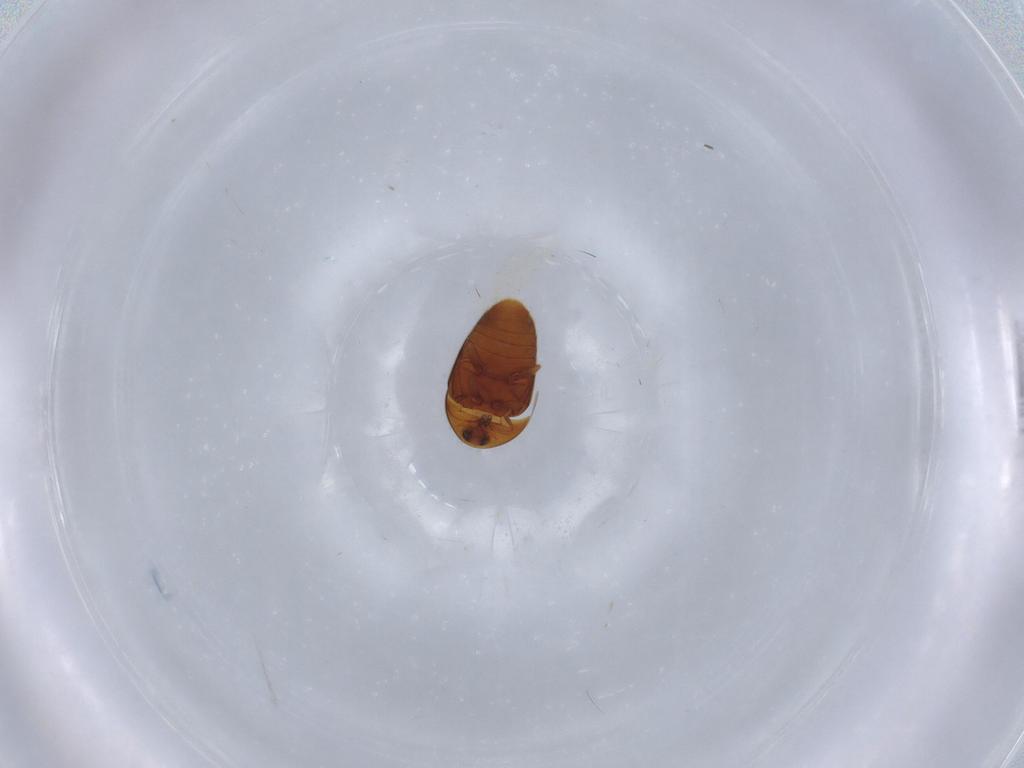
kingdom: Animalia
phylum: Arthropoda
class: Insecta
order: Coleoptera
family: Corylophidae
